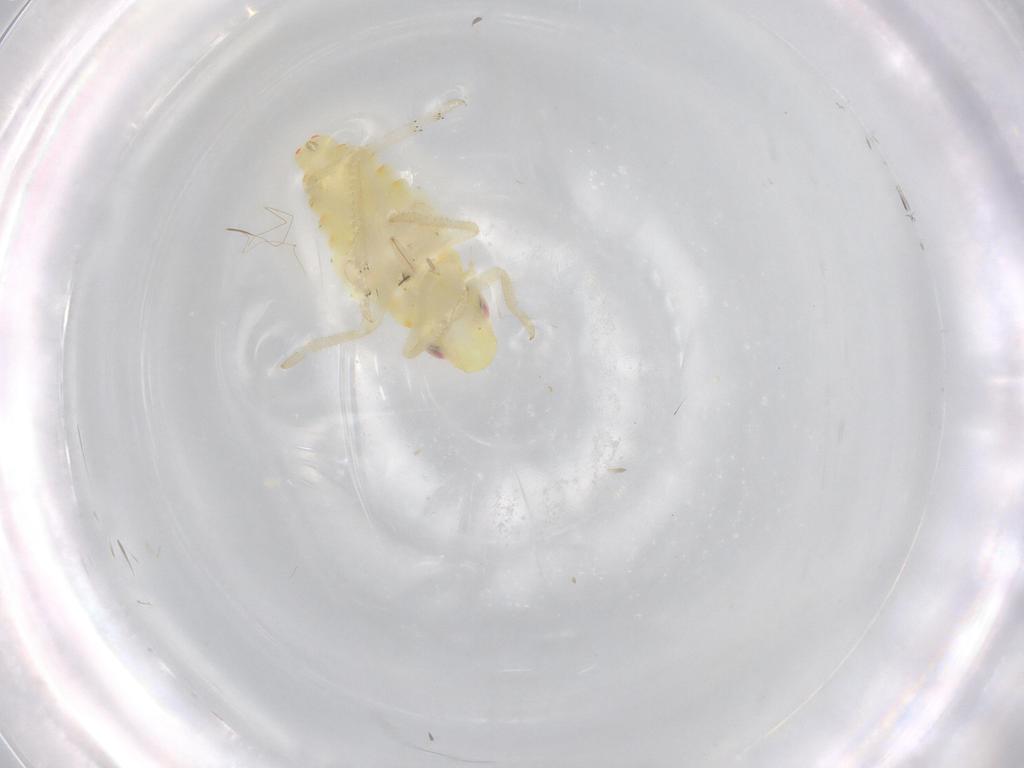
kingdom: Animalia
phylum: Arthropoda
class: Insecta
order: Hemiptera
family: Tropiduchidae
